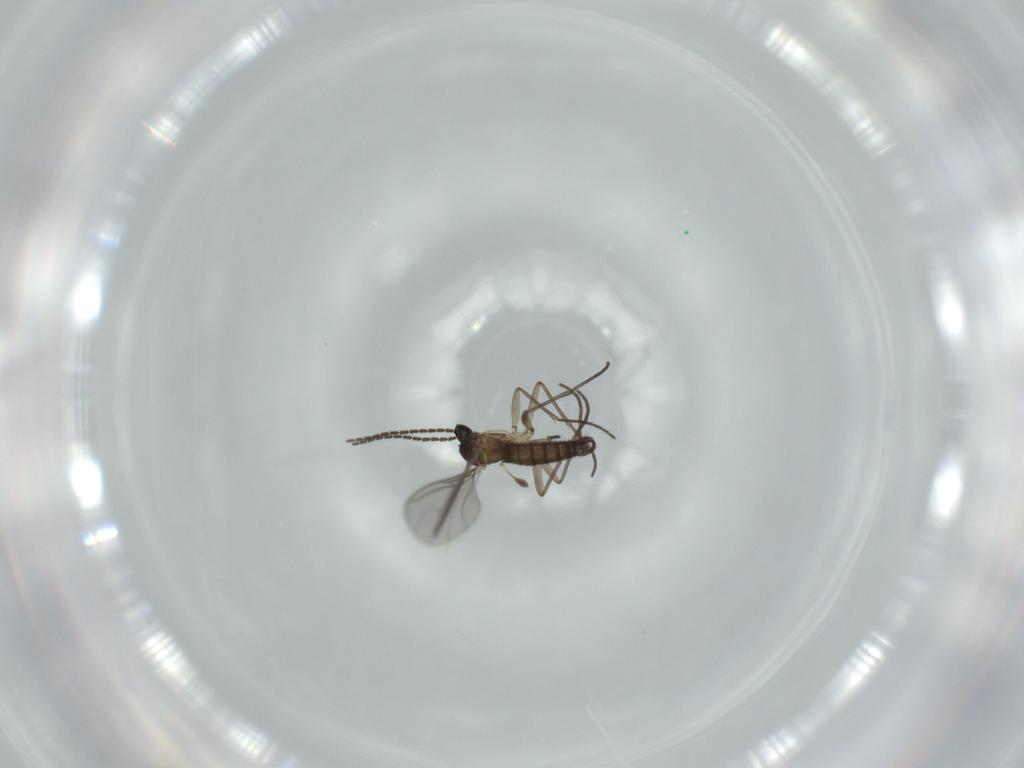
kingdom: Animalia
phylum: Arthropoda
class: Insecta
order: Diptera
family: Sciaridae
